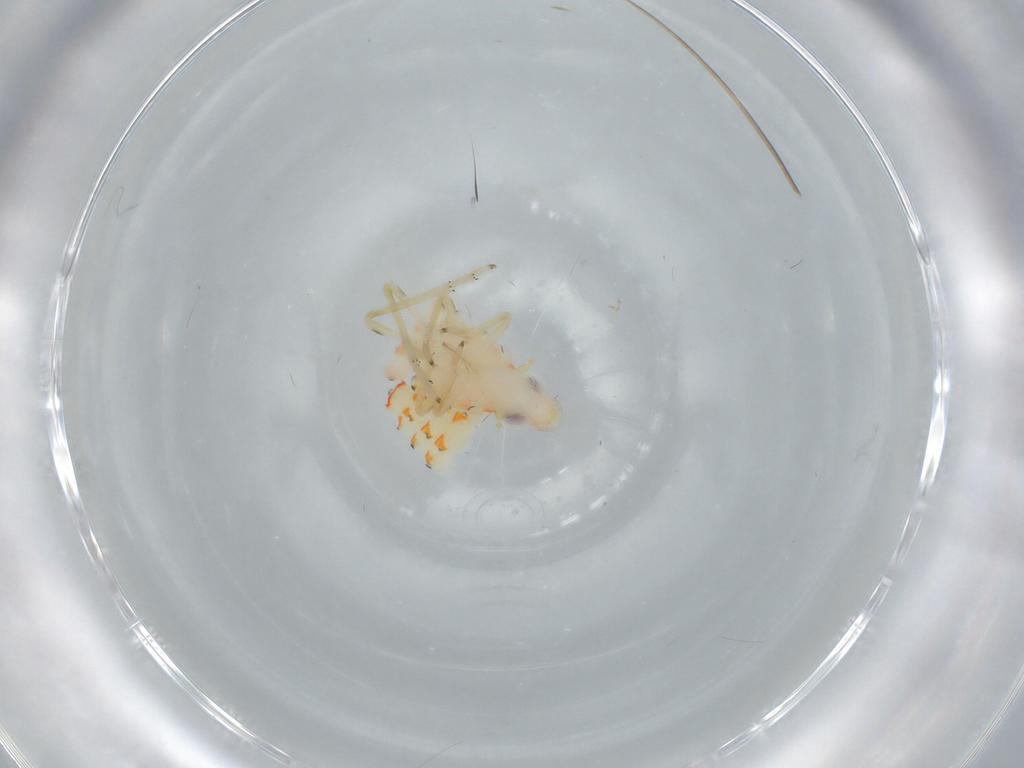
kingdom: Animalia
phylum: Arthropoda
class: Insecta
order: Hemiptera
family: Tropiduchidae
